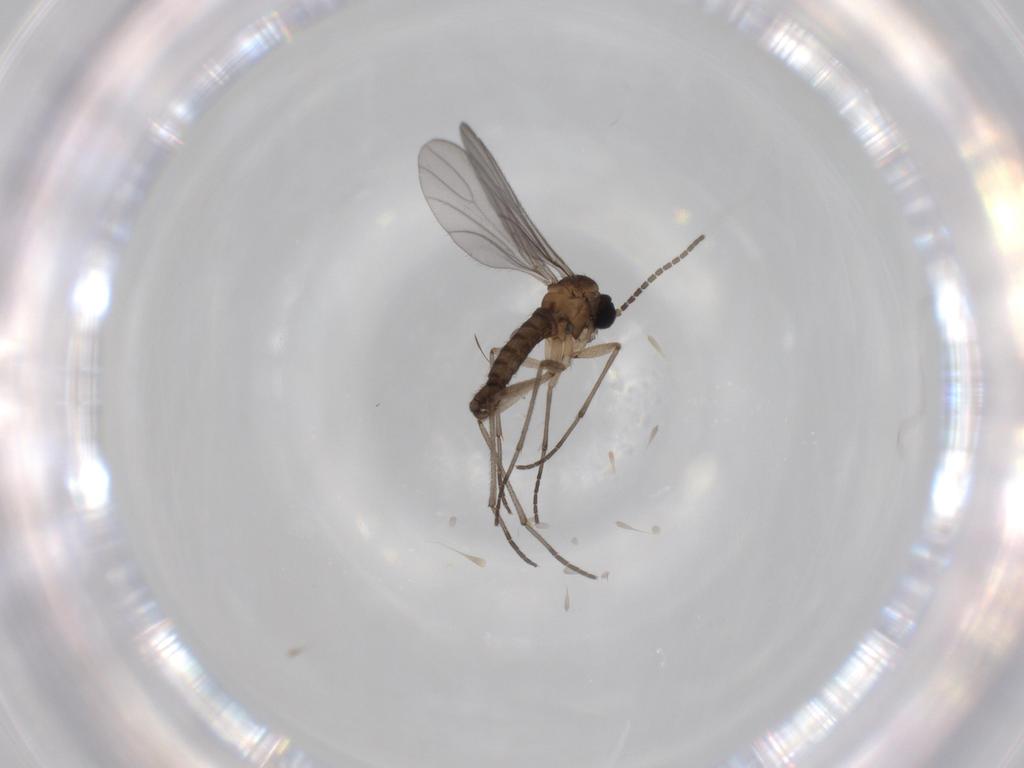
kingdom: Animalia
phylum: Arthropoda
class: Insecta
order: Diptera
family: Sciaridae
